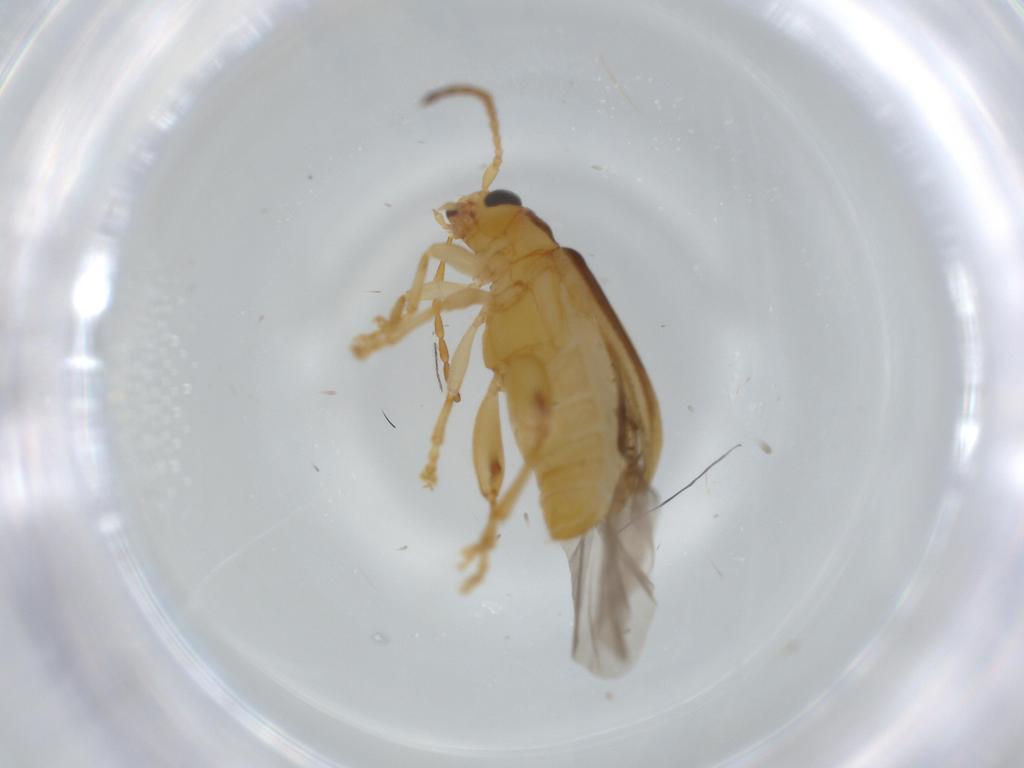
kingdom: Animalia
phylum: Arthropoda
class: Insecta
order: Coleoptera
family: Chrysomelidae
